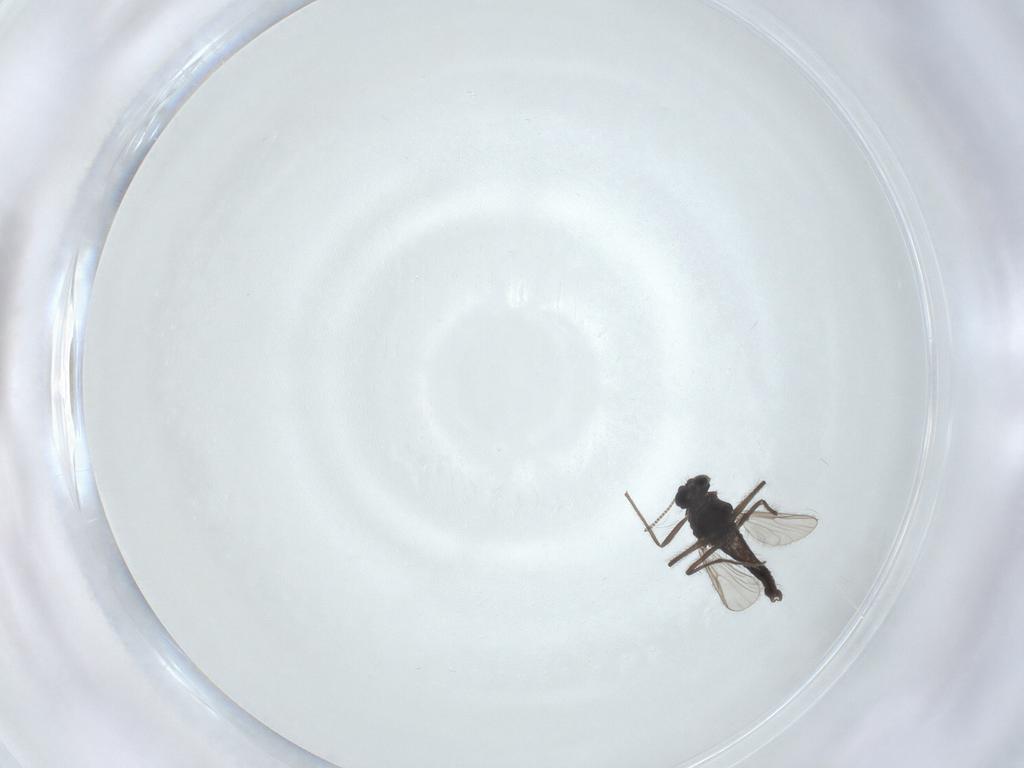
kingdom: Animalia
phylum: Arthropoda
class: Insecta
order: Diptera
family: Chironomidae
